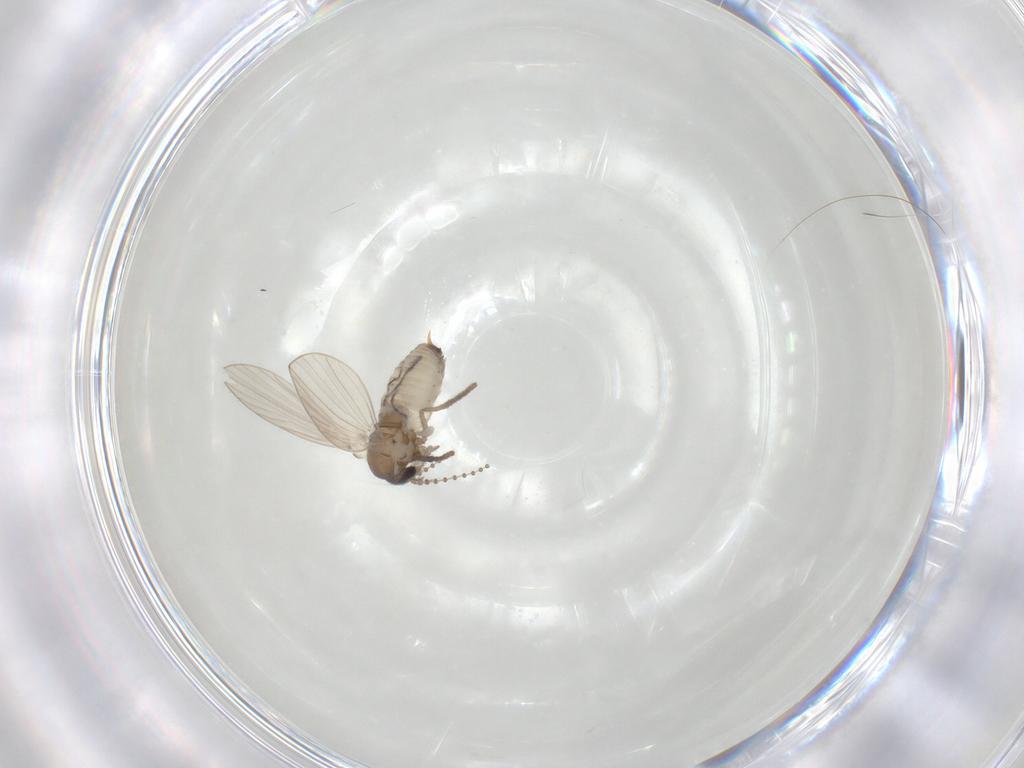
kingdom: Animalia
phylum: Arthropoda
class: Insecta
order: Diptera
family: Psychodidae
